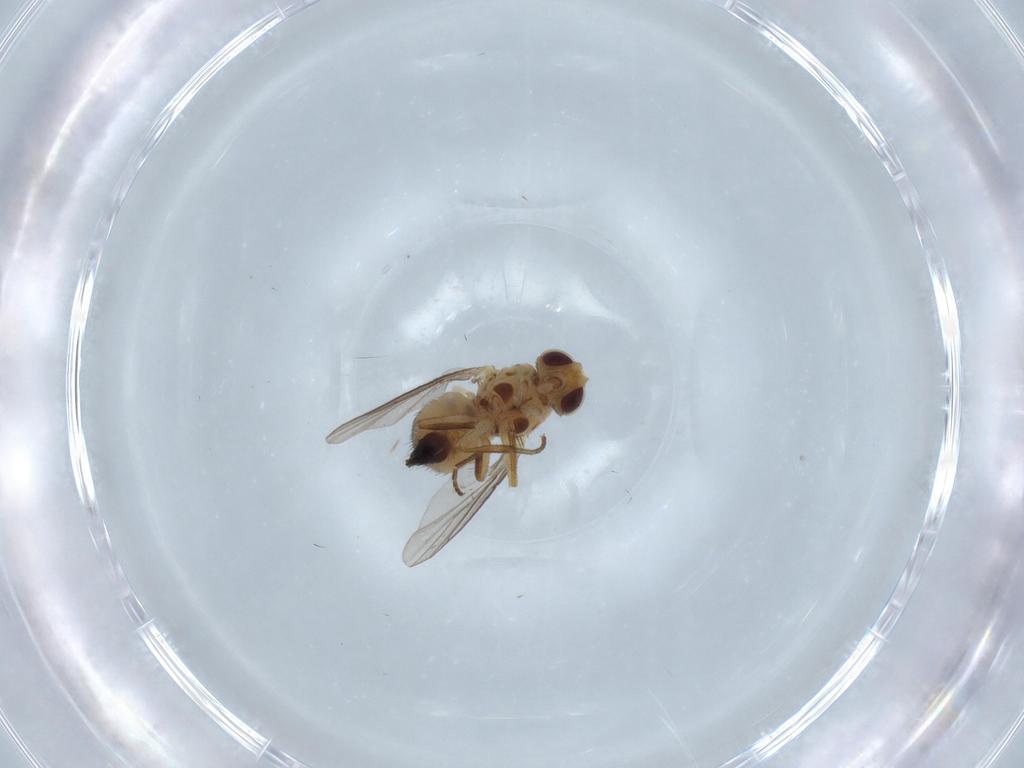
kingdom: Animalia
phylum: Arthropoda
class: Insecta
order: Diptera
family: Agromyzidae
